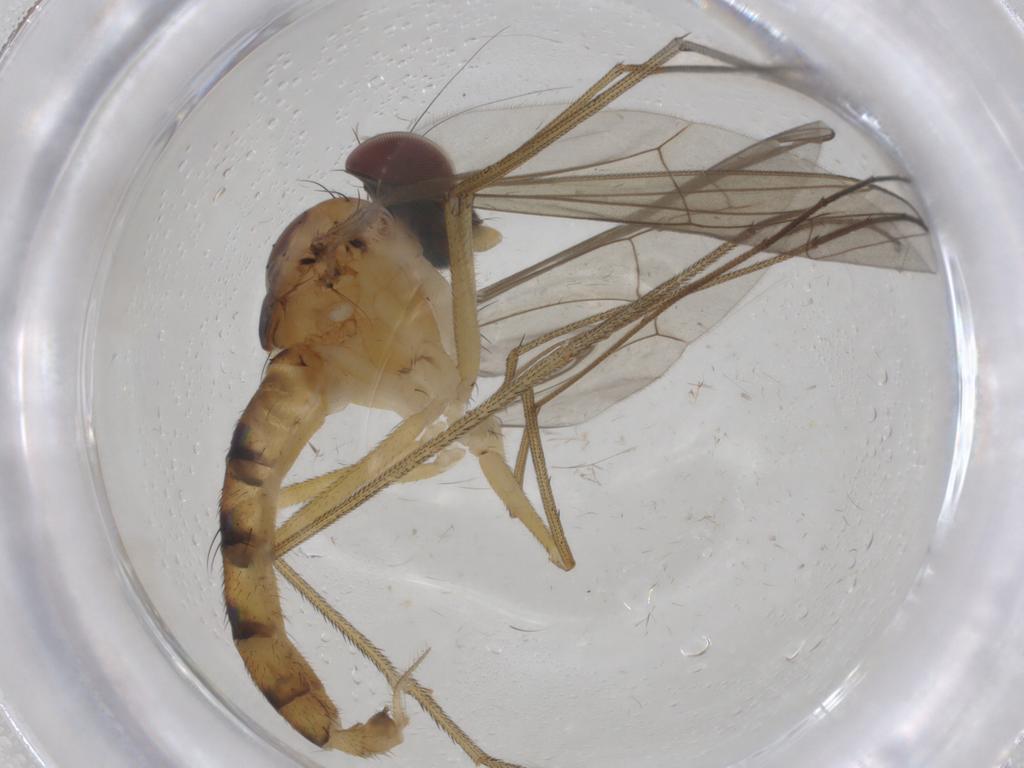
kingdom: Animalia
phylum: Arthropoda
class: Insecta
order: Diptera
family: Dolichopodidae
